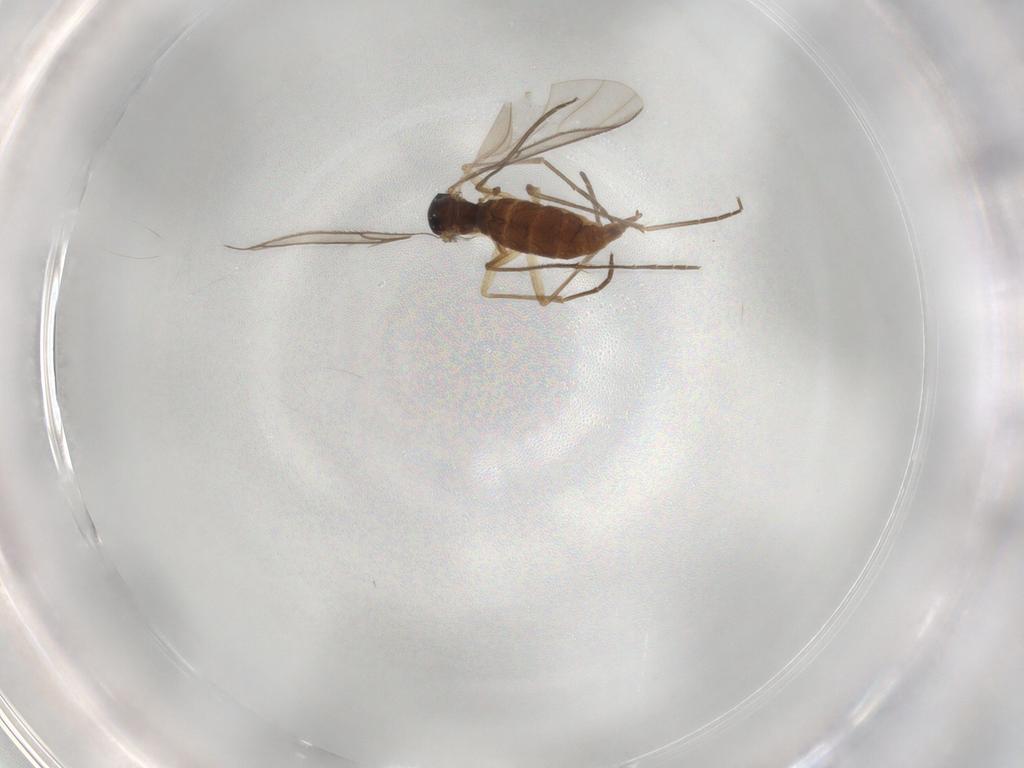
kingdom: Animalia
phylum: Arthropoda
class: Insecta
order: Diptera
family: Sciaridae
